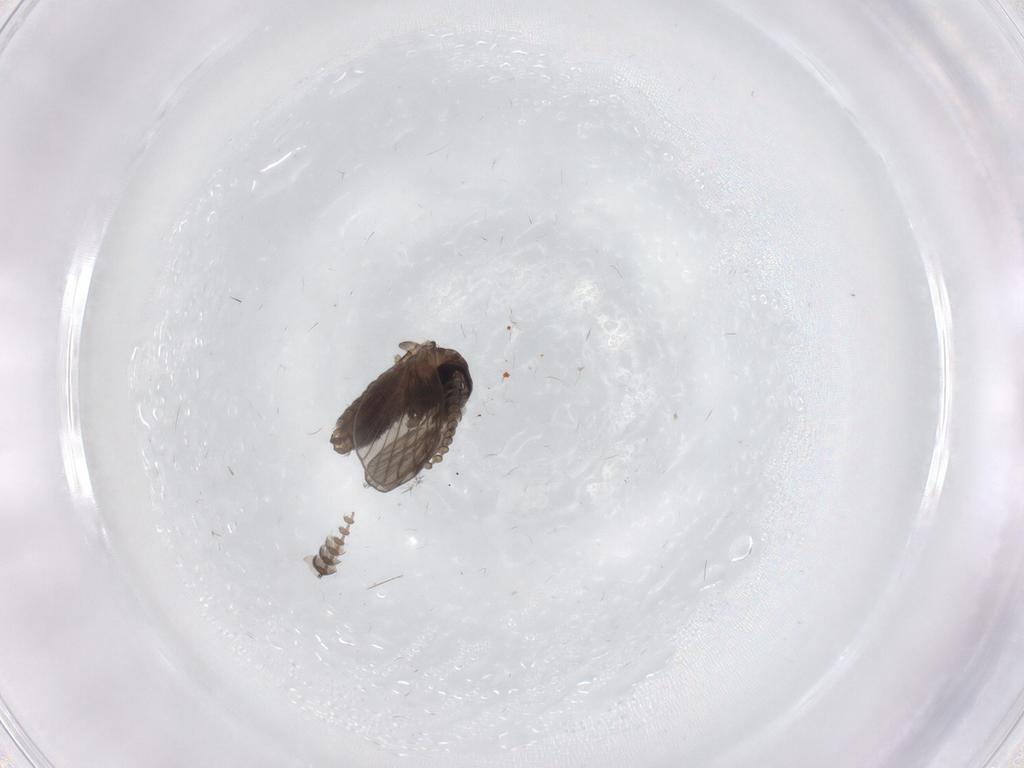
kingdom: Animalia
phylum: Arthropoda
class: Insecta
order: Diptera
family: Psychodidae
